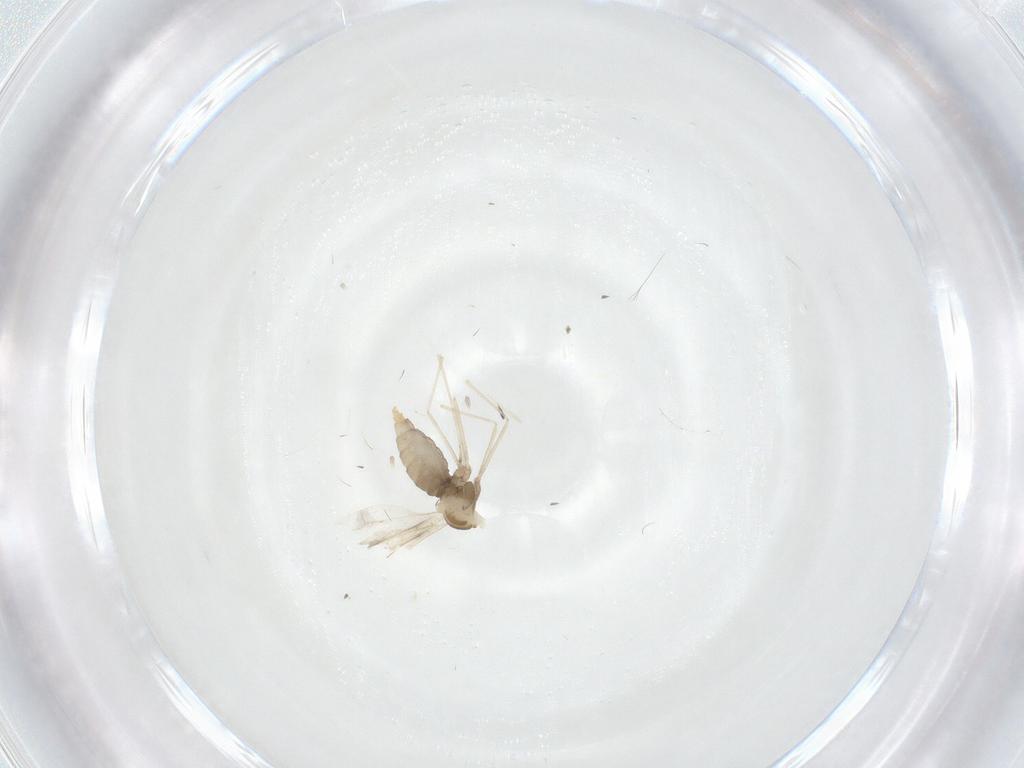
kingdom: Animalia
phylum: Arthropoda
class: Insecta
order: Diptera
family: Cecidomyiidae
